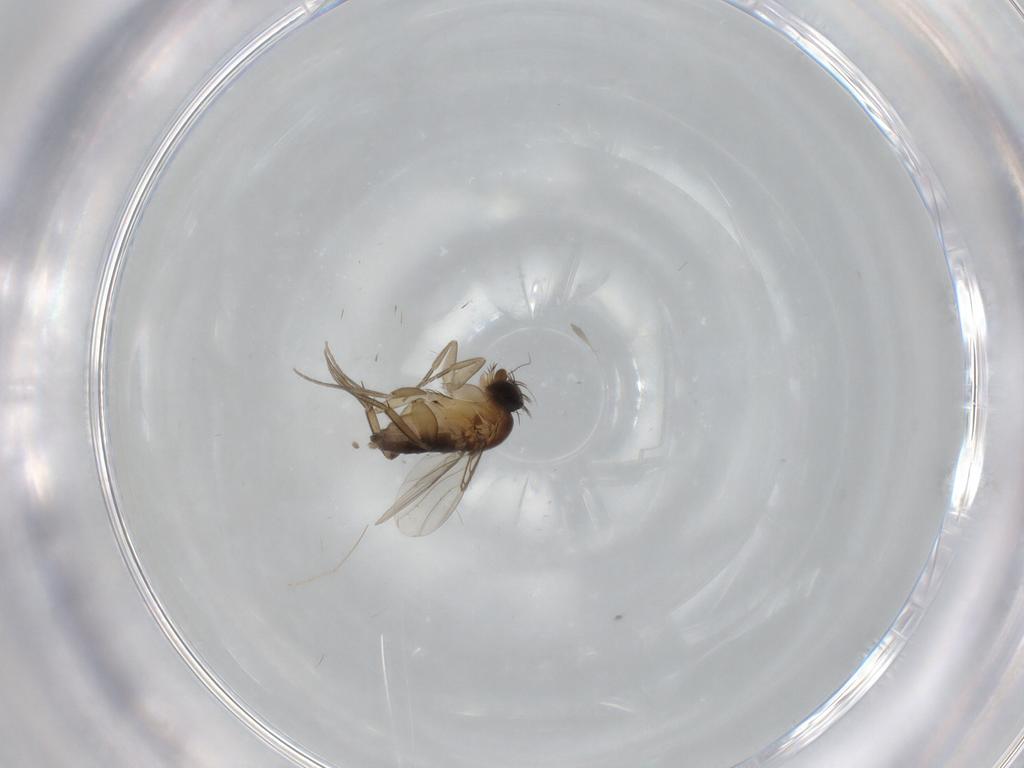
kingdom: Animalia
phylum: Arthropoda
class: Insecta
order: Diptera
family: Phoridae
